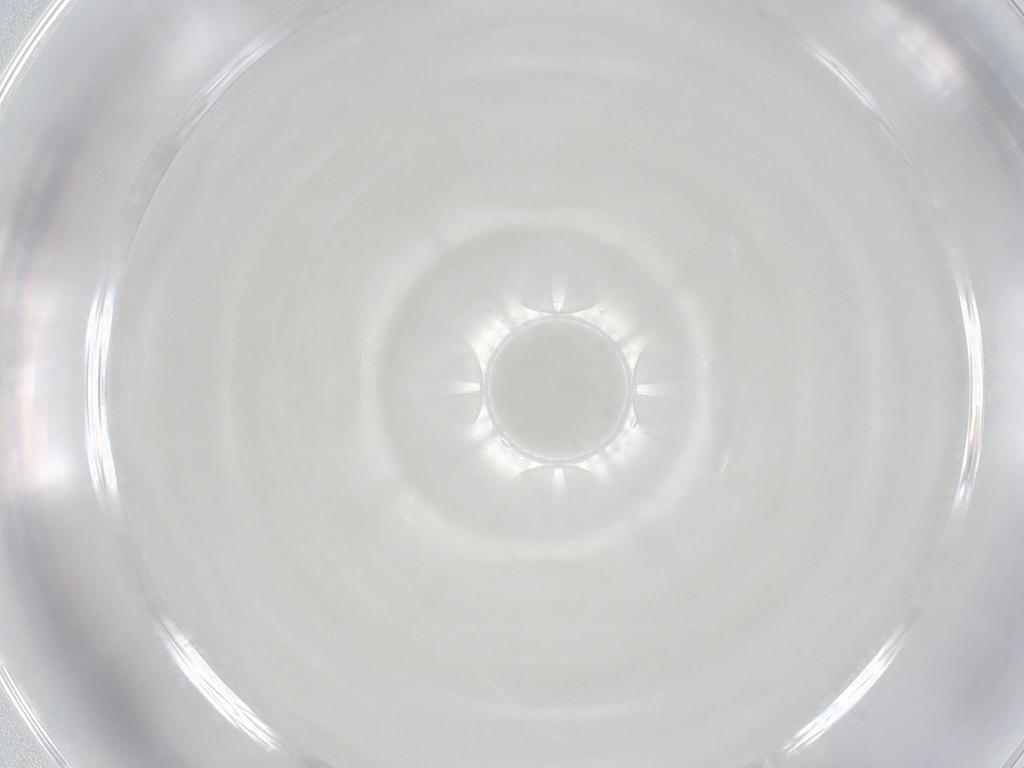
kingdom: Animalia
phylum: Arthropoda
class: Insecta
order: Diptera
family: Sciaridae
